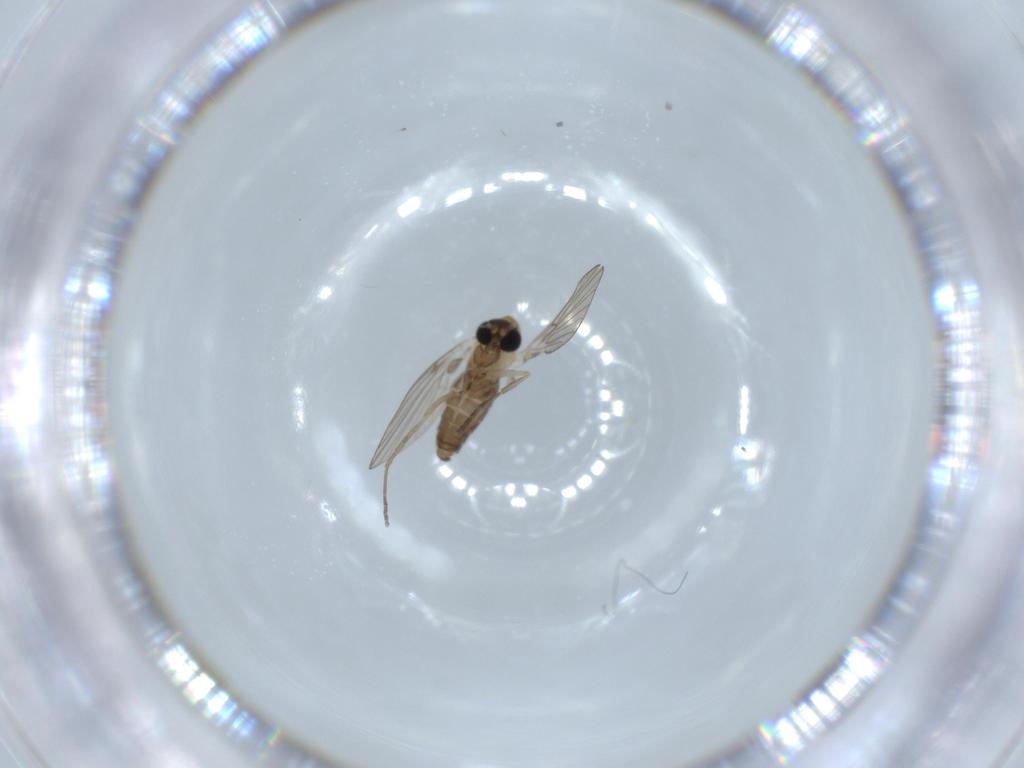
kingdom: Animalia
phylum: Arthropoda
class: Insecta
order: Diptera
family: Psychodidae
